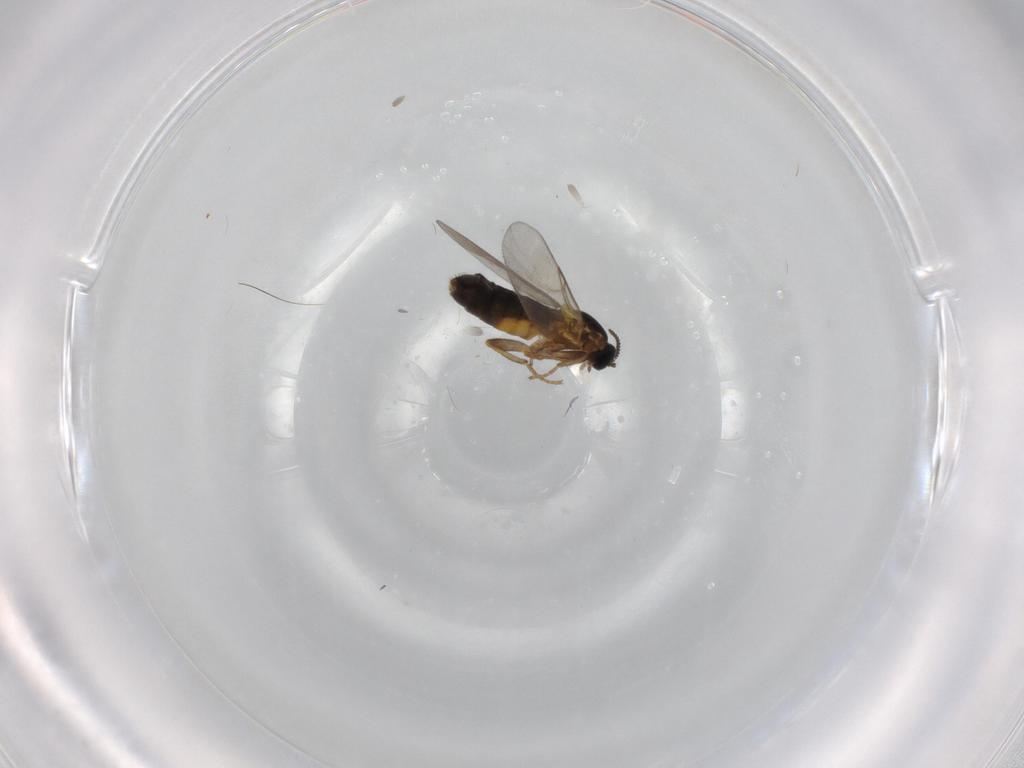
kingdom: Animalia
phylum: Arthropoda
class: Insecta
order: Diptera
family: Scatopsidae
